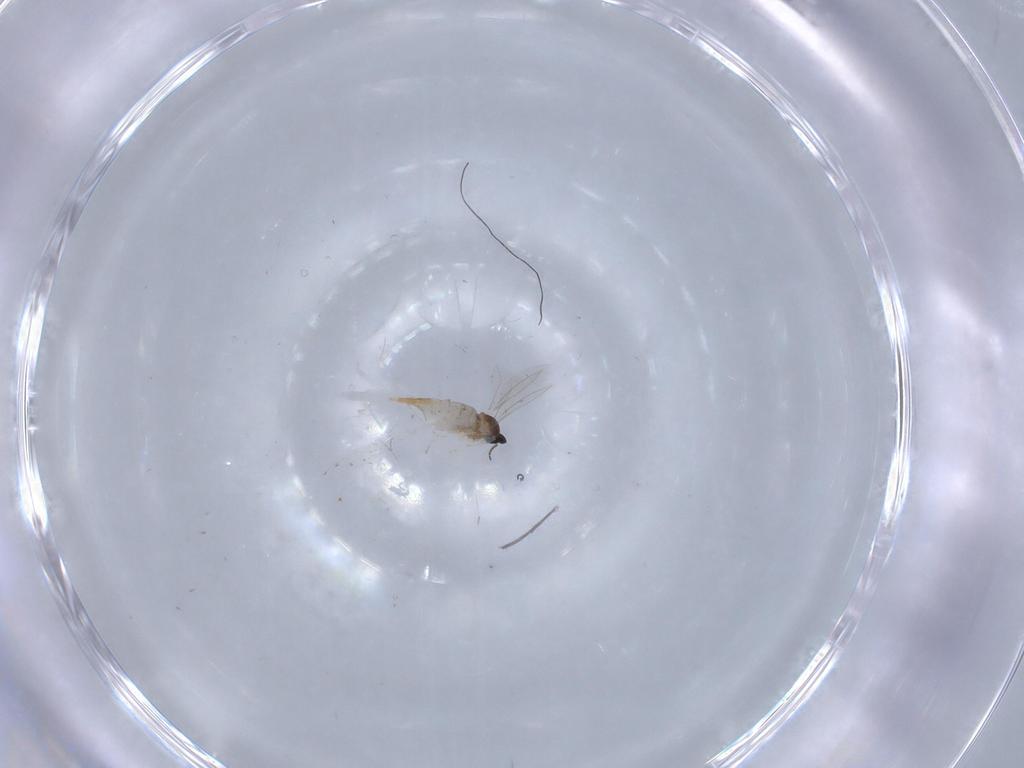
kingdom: Animalia
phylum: Arthropoda
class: Insecta
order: Diptera
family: Cecidomyiidae
